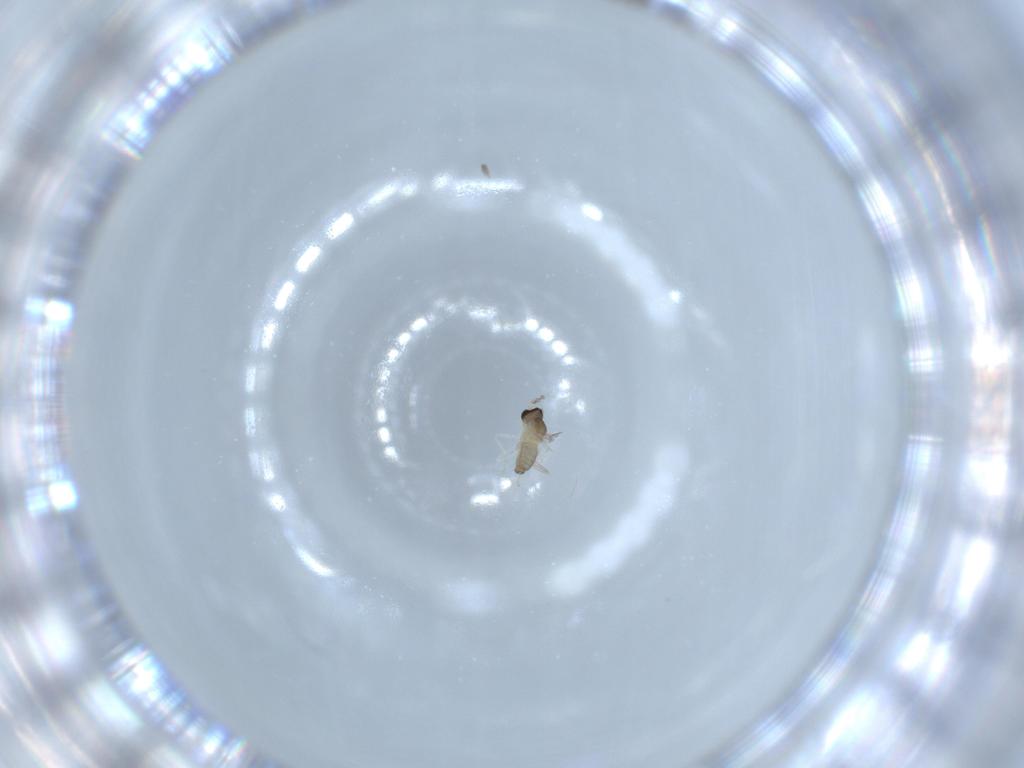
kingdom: Animalia
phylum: Arthropoda
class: Insecta
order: Diptera
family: Cecidomyiidae
